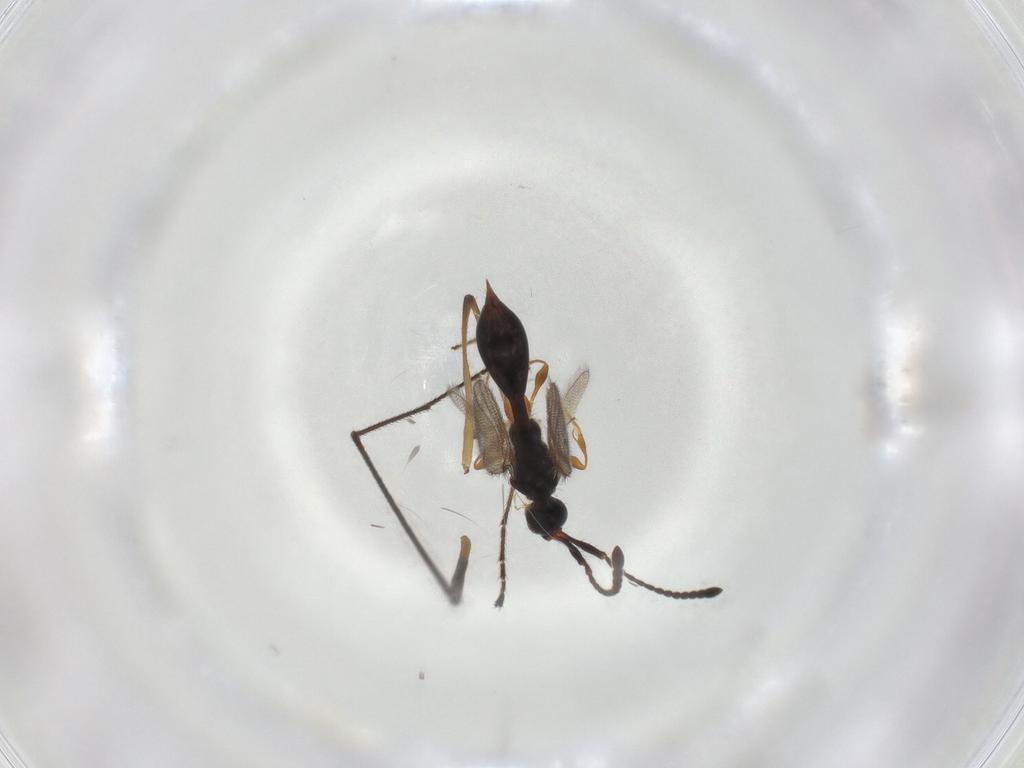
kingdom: Animalia
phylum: Arthropoda
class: Insecta
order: Hymenoptera
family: Diapriidae
